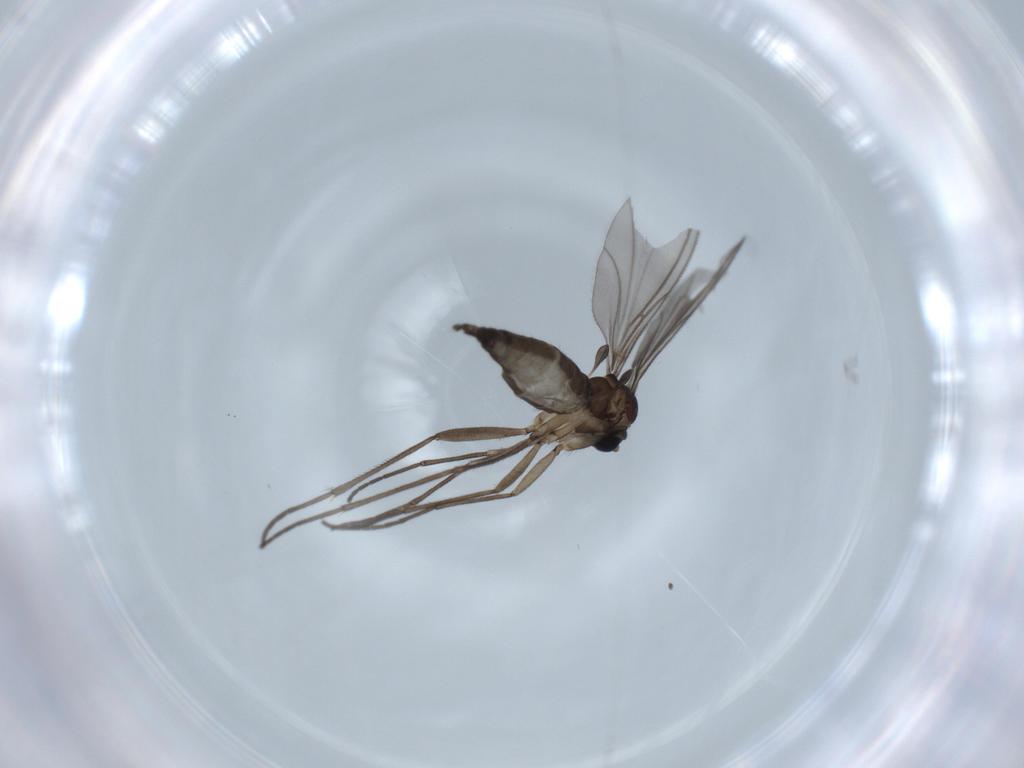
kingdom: Animalia
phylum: Arthropoda
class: Insecta
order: Diptera
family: Sciaridae
